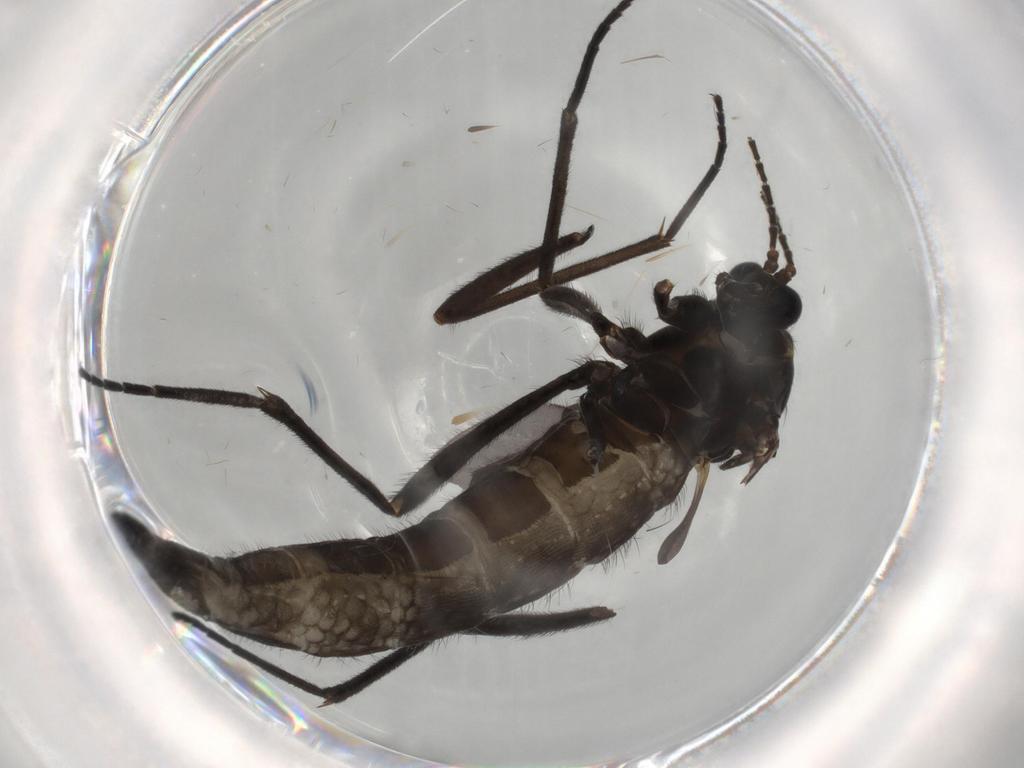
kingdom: Animalia
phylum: Arthropoda
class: Insecta
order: Diptera
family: Sciaridae
